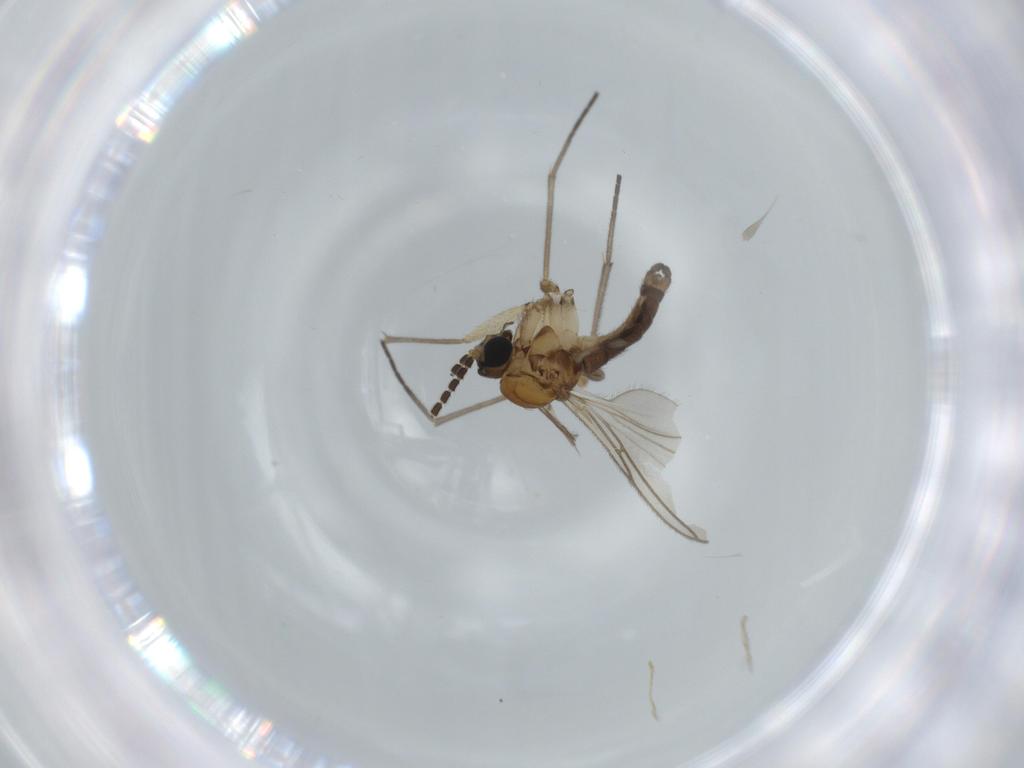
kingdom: Animalia
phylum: Arthropoda
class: Insecta
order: Diptera
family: Sciaridae
